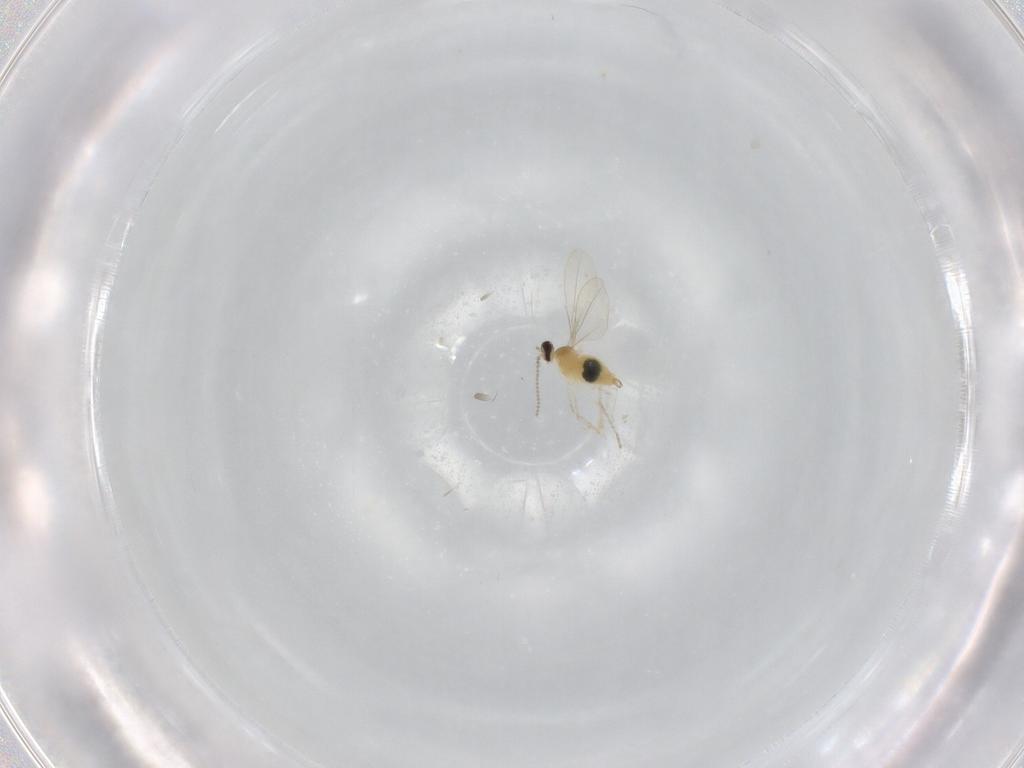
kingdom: Animalia
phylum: Arthropoda
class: Insecta
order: Diptera
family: Cecidomyiidae
